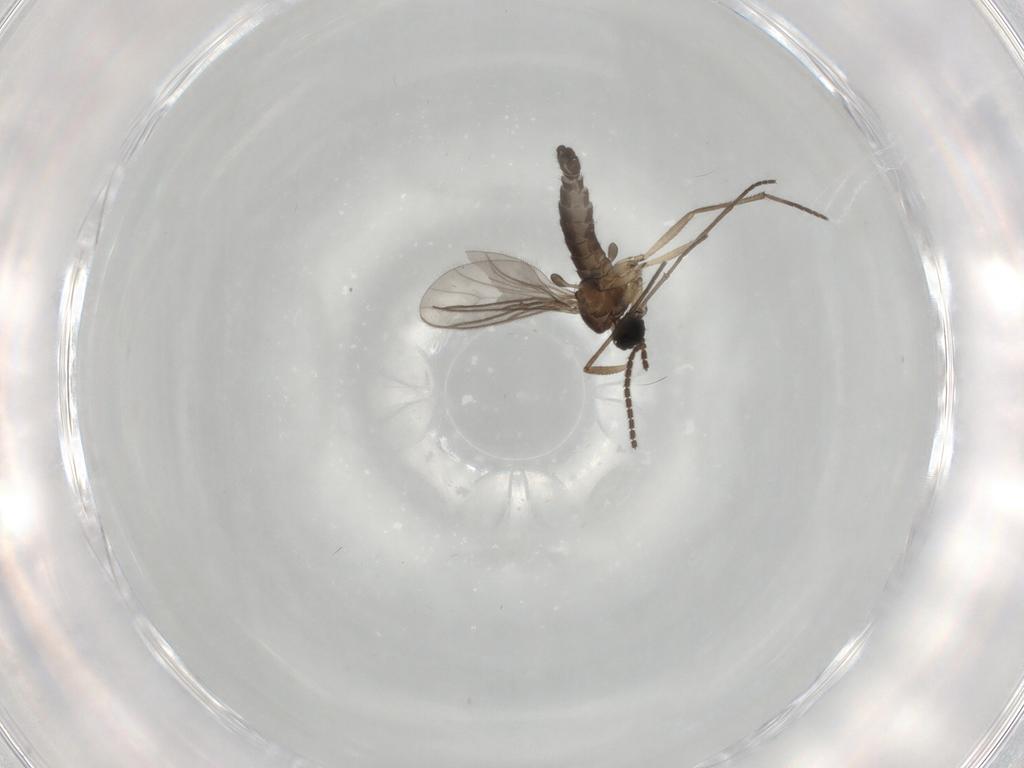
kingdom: Animalia
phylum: Arthropoda
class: Insecta
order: Diptera
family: Sciaridae
